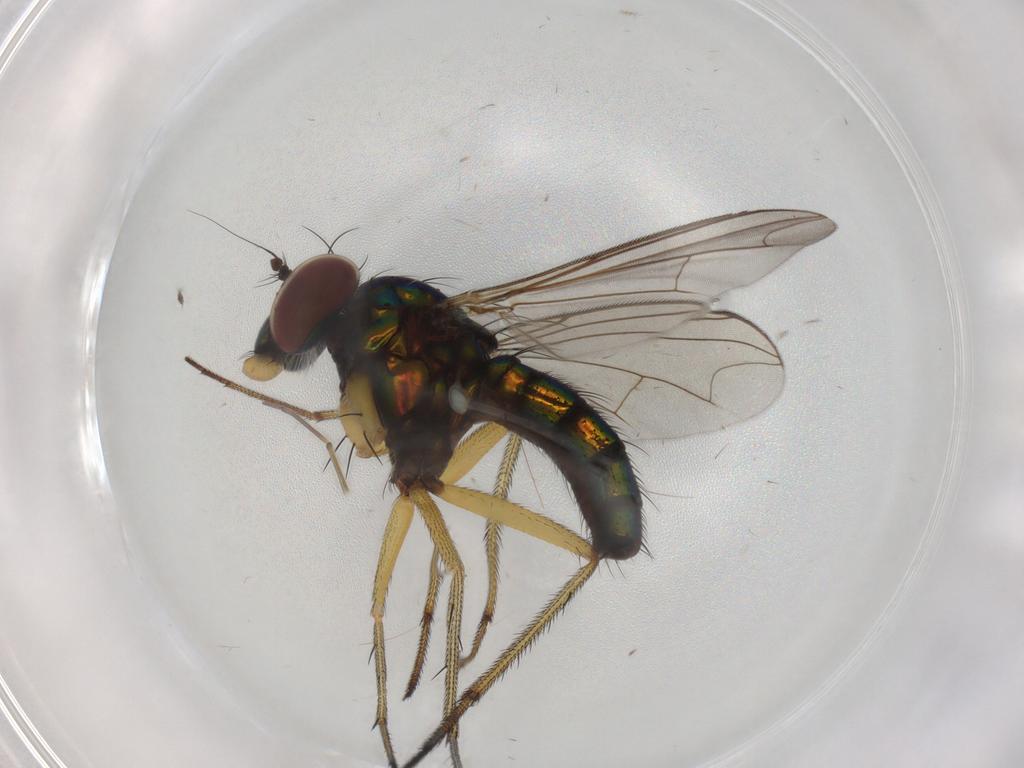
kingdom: Animalia
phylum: Arthropoda
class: Insecta
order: Diptera
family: Dolichopodidae
